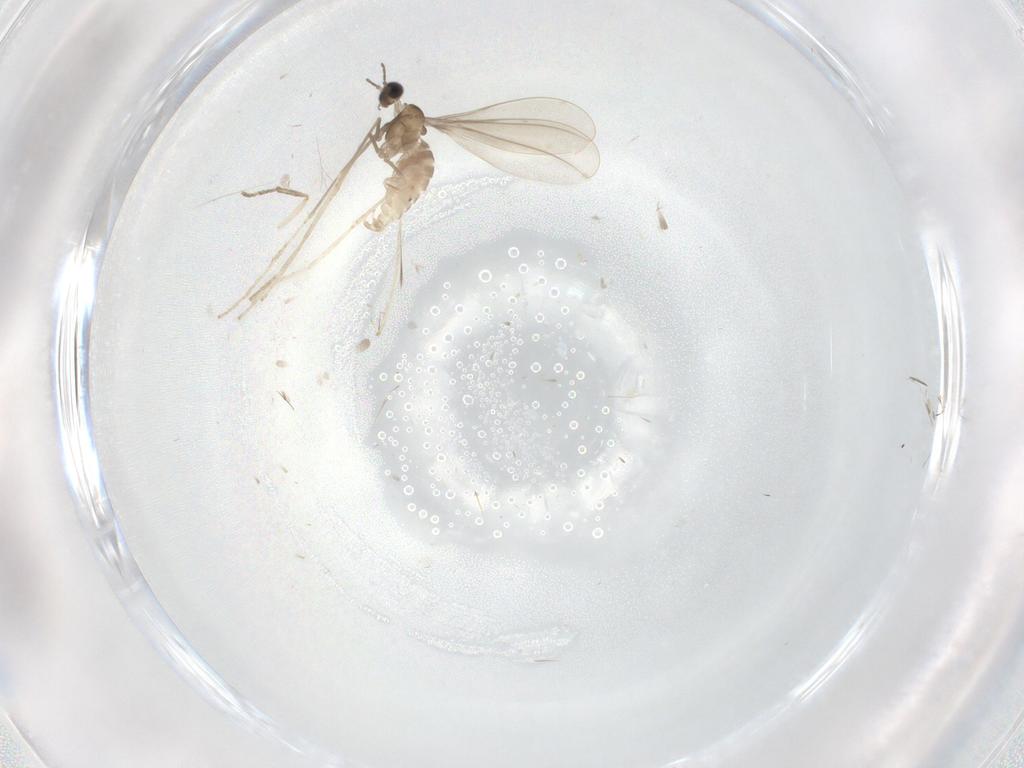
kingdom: Animalia
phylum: Arthropoda
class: Insecta
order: Diptera
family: Cecidomyiidae
